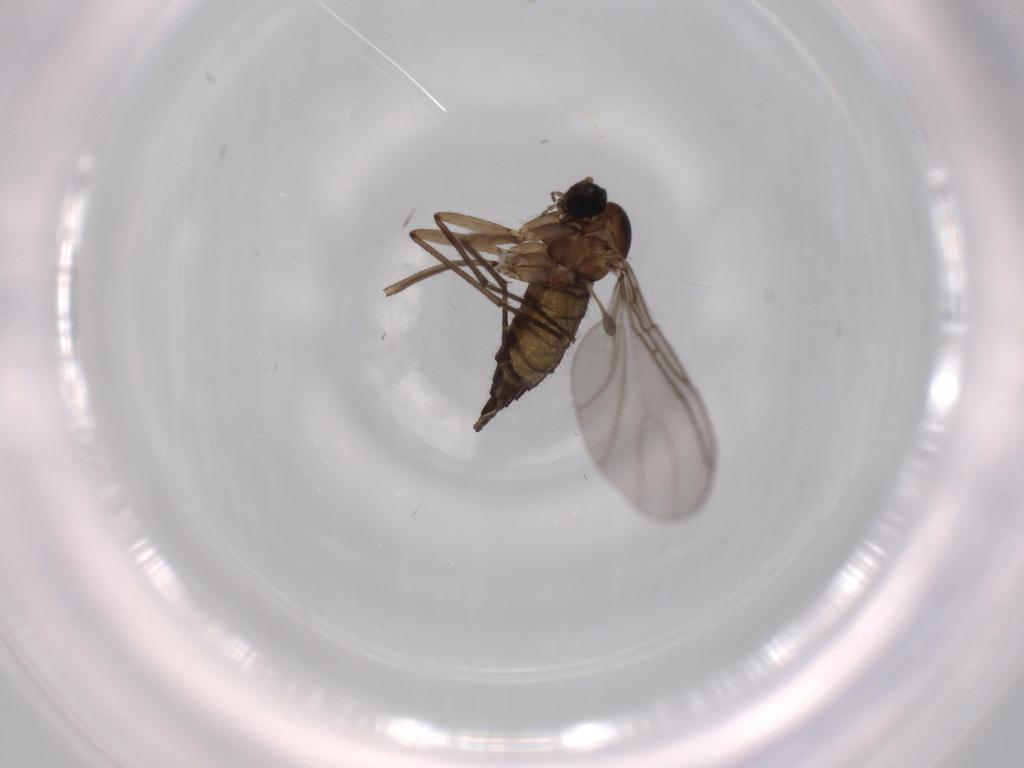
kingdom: Animalia
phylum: Arthropoda
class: Insecta
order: Diptera
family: Sciaridae
